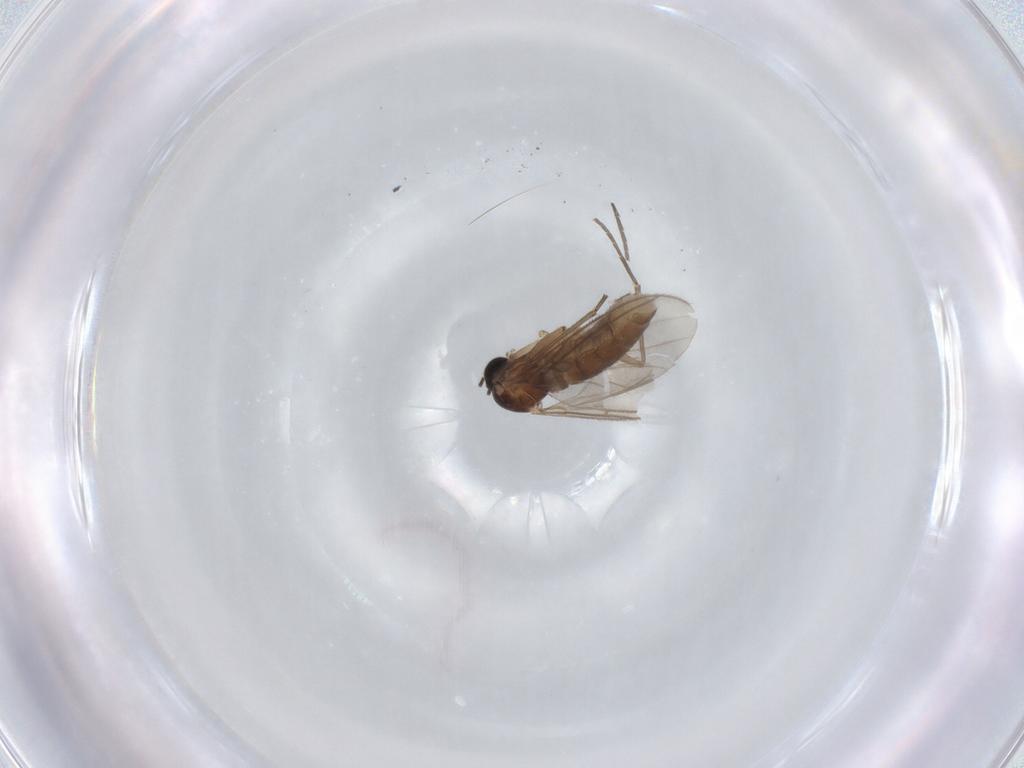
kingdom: Animalia
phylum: Arthropoda
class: Insecta
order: Diptera
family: Sciaridae
